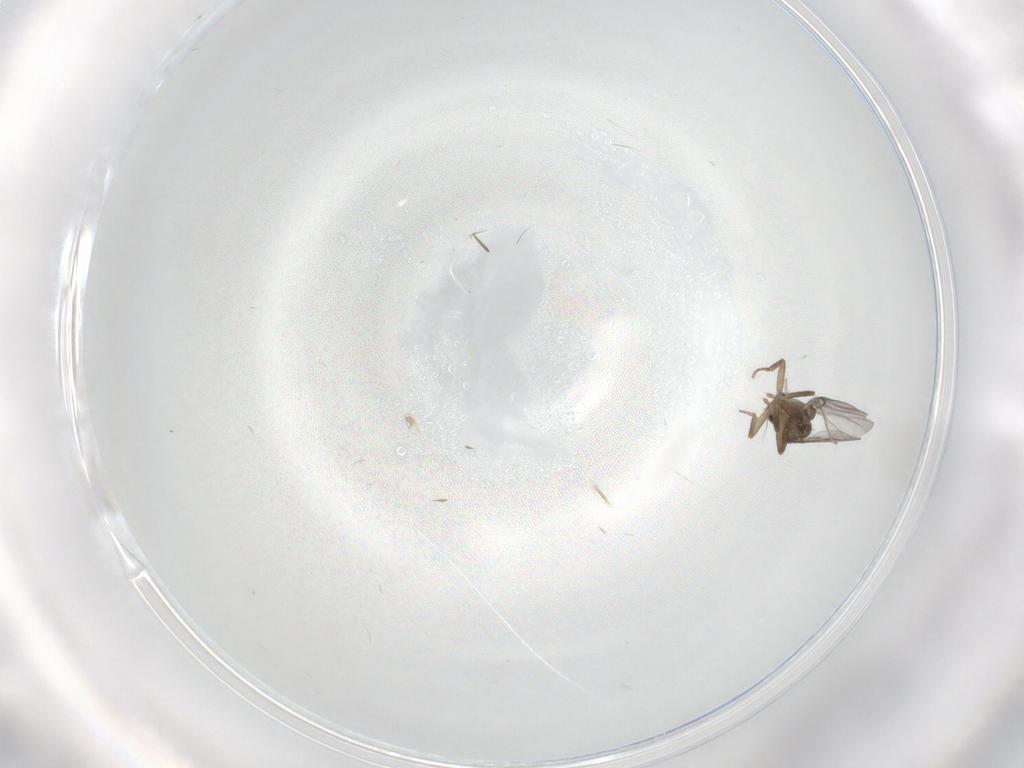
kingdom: Animalia
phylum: Arthropoda
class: Insecta
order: Diptera
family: Cecidomyiidae
